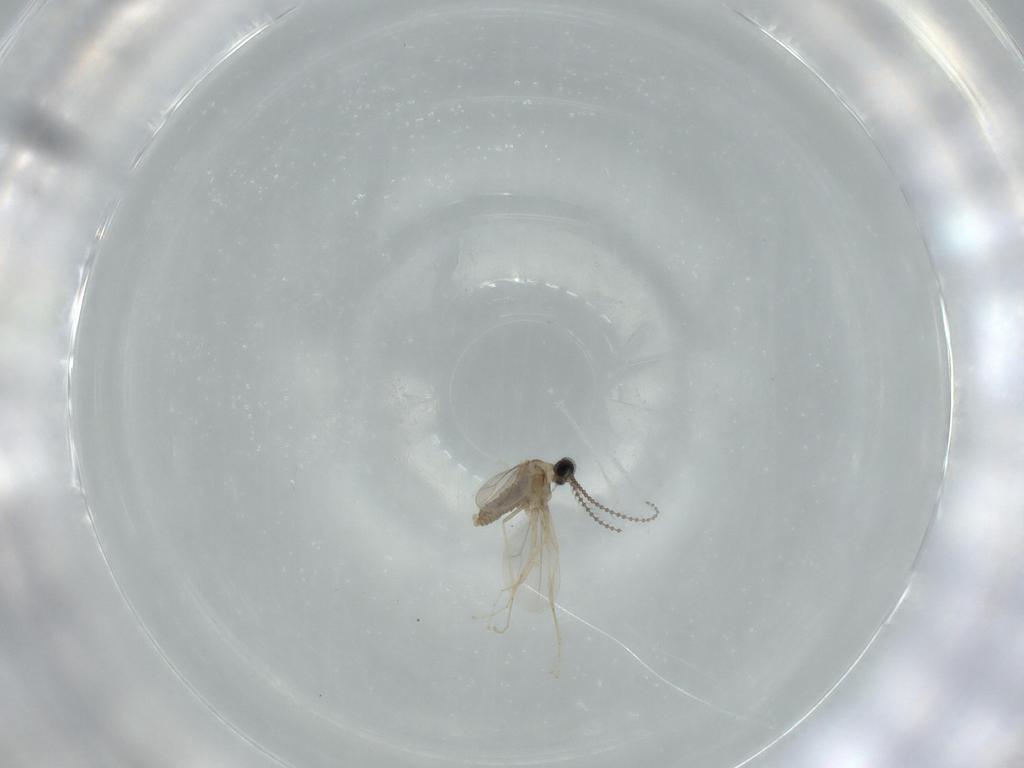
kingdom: Animalia
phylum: Arthropoda
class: Insecta
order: Diptera
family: Cecidomyiidae
